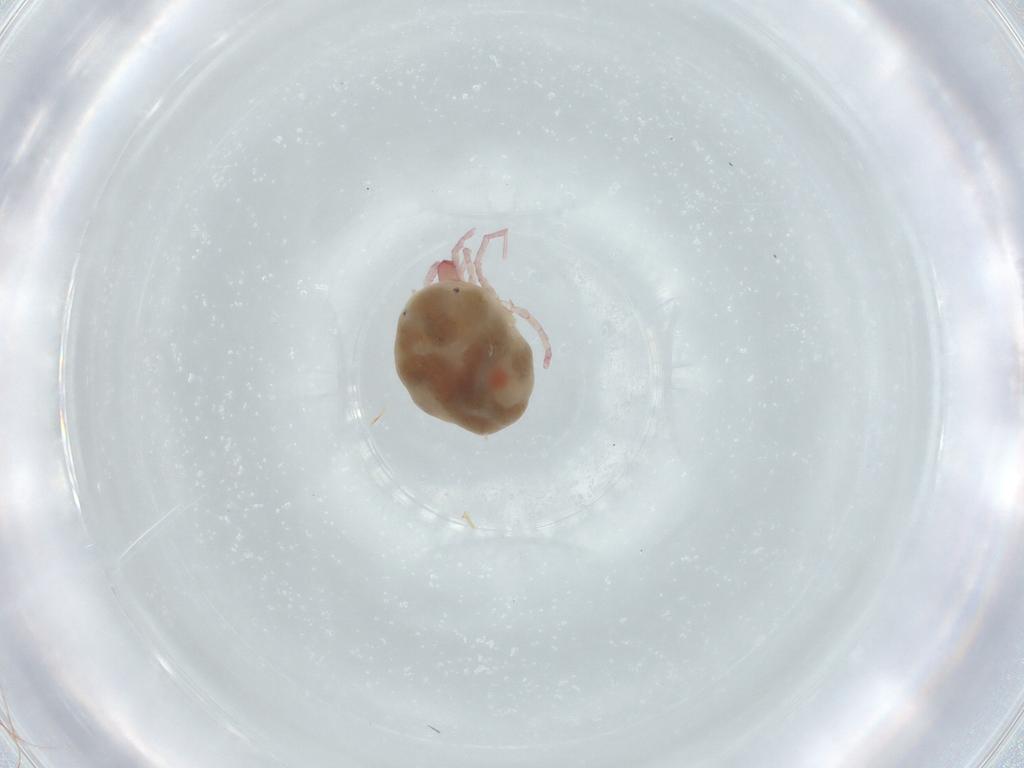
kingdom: Animalia
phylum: Arthropoda
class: Arachnida
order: Trombidiformes
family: Pionidae
